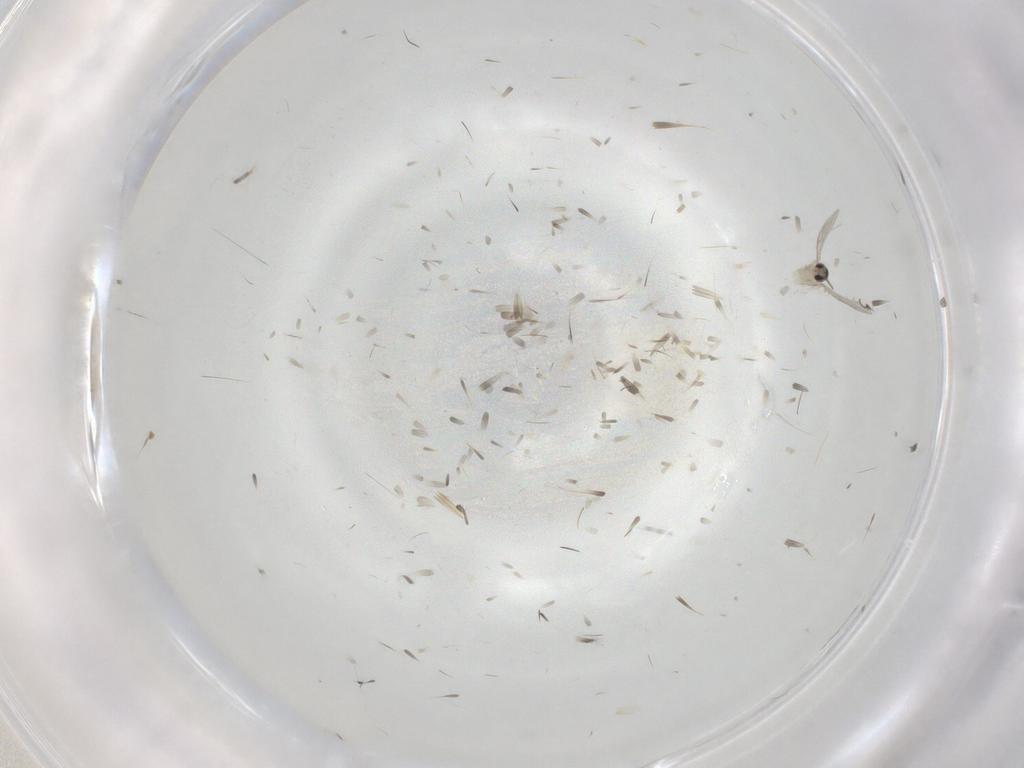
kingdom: Animalia
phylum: Arthropoda
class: Insecta
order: Diptera
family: Cecidomyiidae
